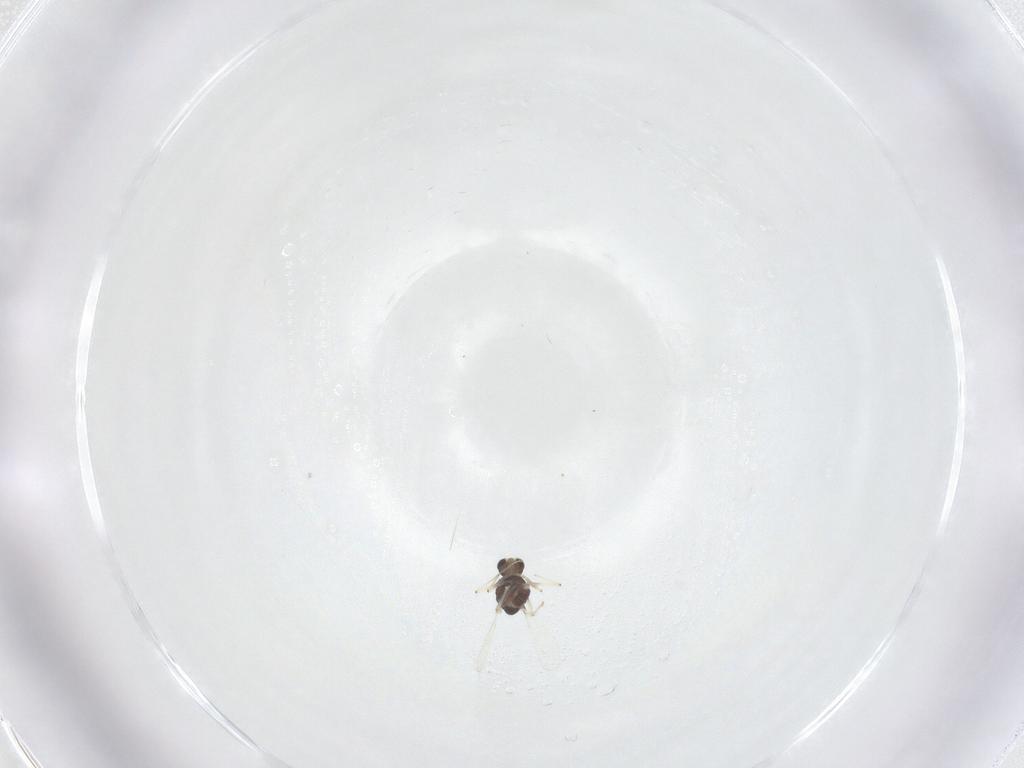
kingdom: Animalia
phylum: Arthropoda
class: Insecta
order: Diptera
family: Chironomidae
